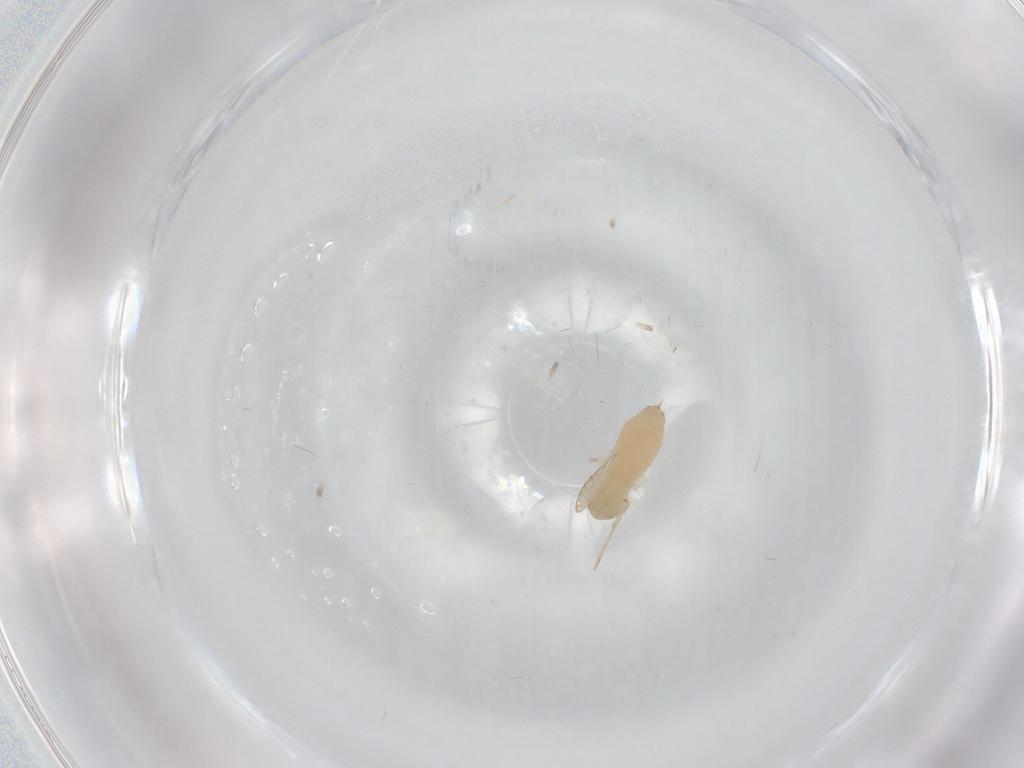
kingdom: Animalia
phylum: Arthropoda
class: Insecta
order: Diptera
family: Psychodidae
